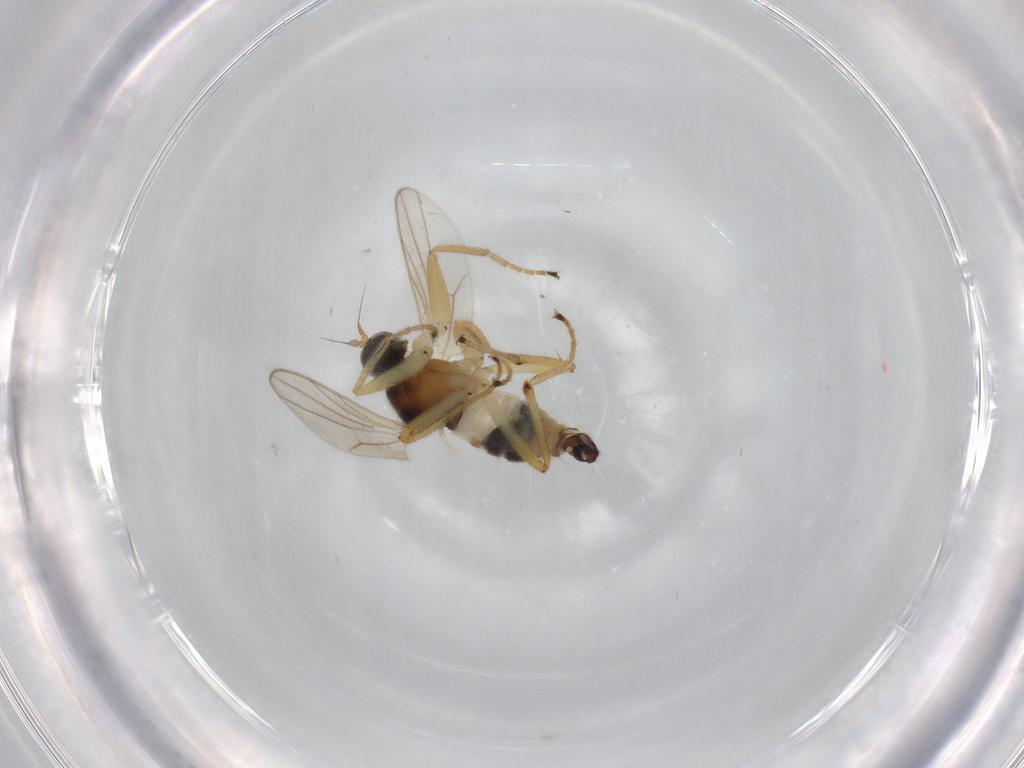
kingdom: Animalia
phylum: Arthropoda
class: Insecta
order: Diptera
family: Hybotidae
